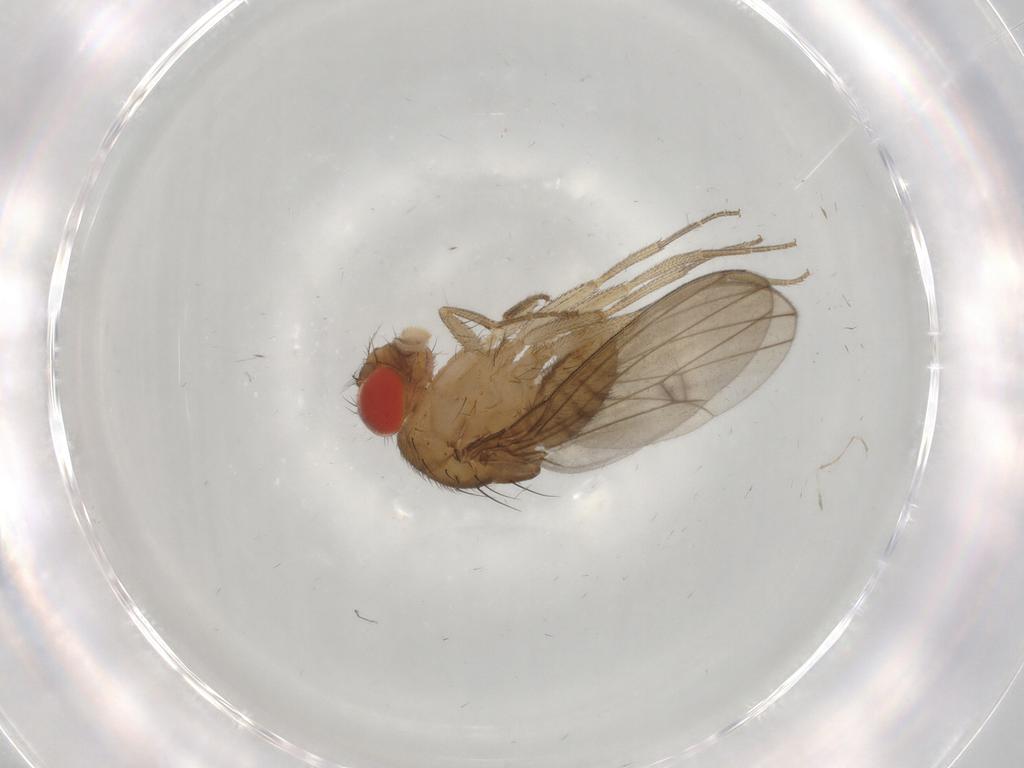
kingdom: Animalia
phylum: Arthropoda
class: Insecta
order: Diptera
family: Drosophilidae
